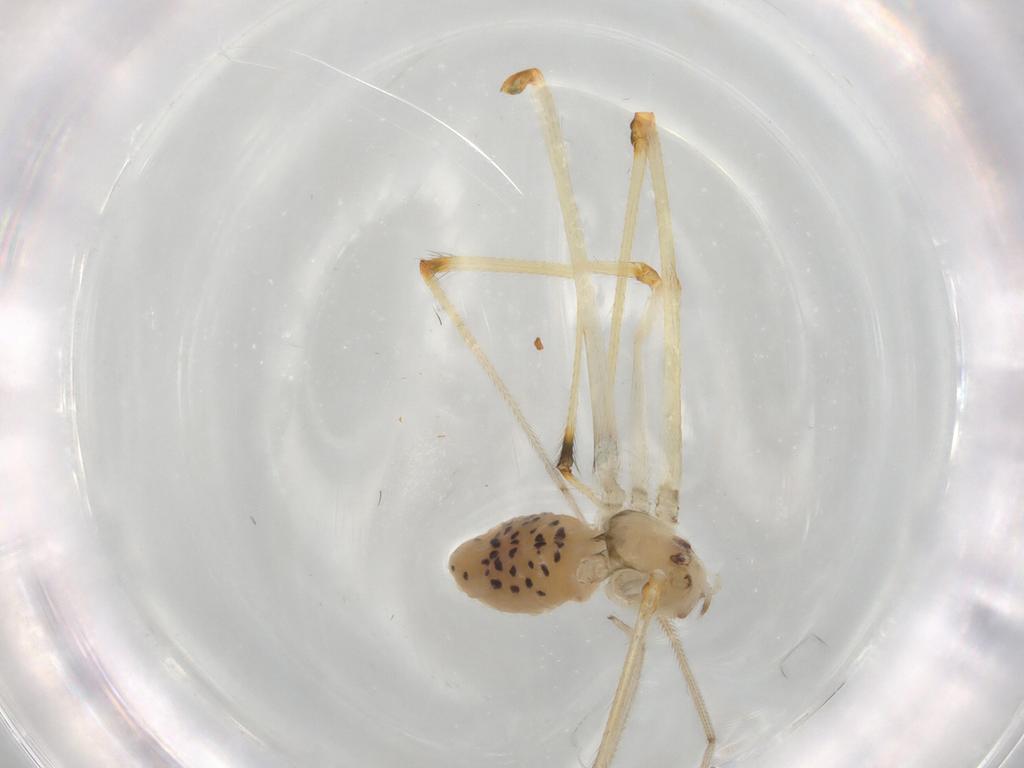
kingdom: Animalia
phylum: Arthropoda
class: Arachnida
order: Araneae
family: Pholcidae
